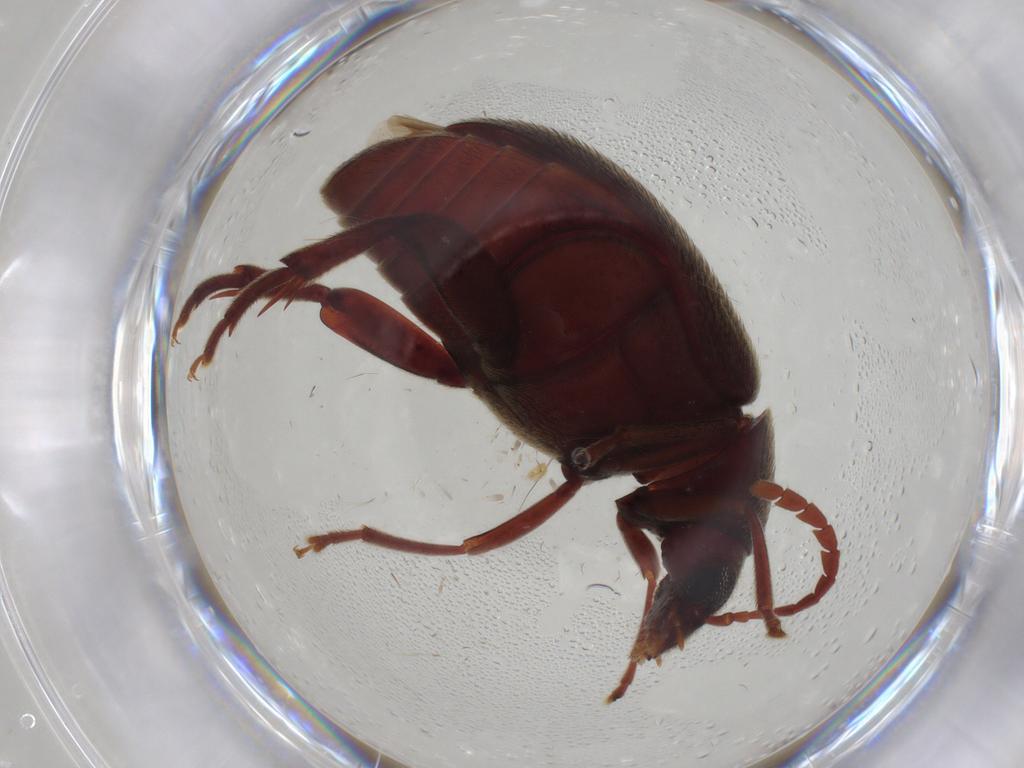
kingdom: Animalia
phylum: Arthropoda
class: Insecta
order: Coleoptera
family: Chrysomelidae
